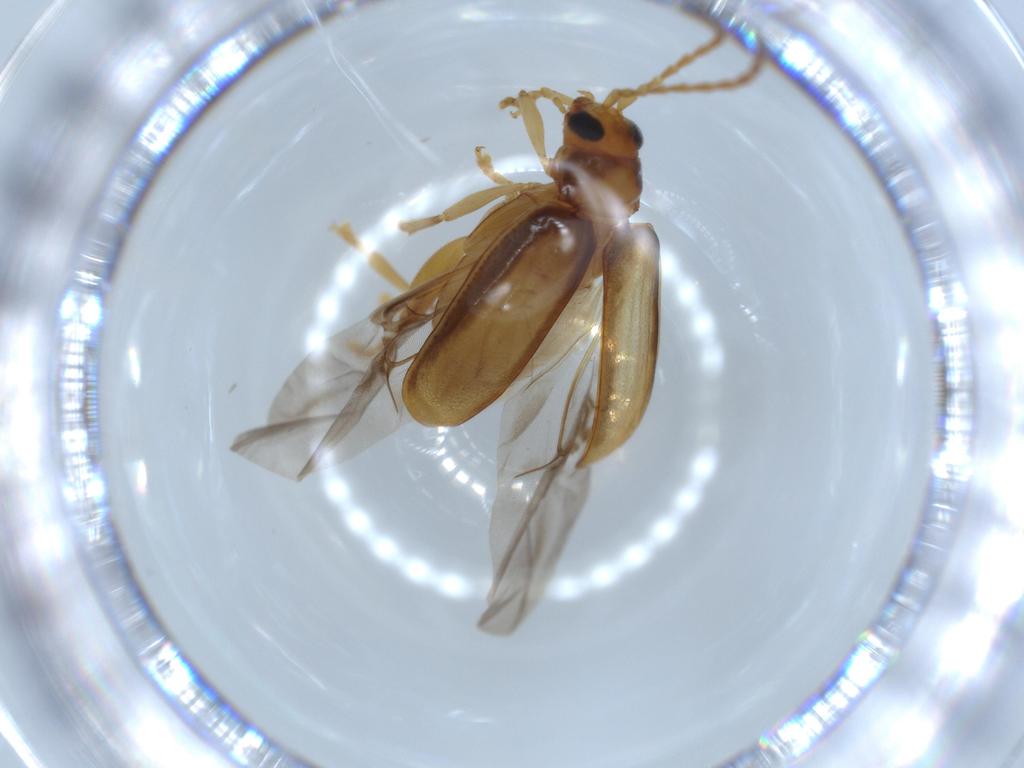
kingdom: Animalia
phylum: Arthropoda
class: Insecta
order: Coleoptera
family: Chrysomelidae
